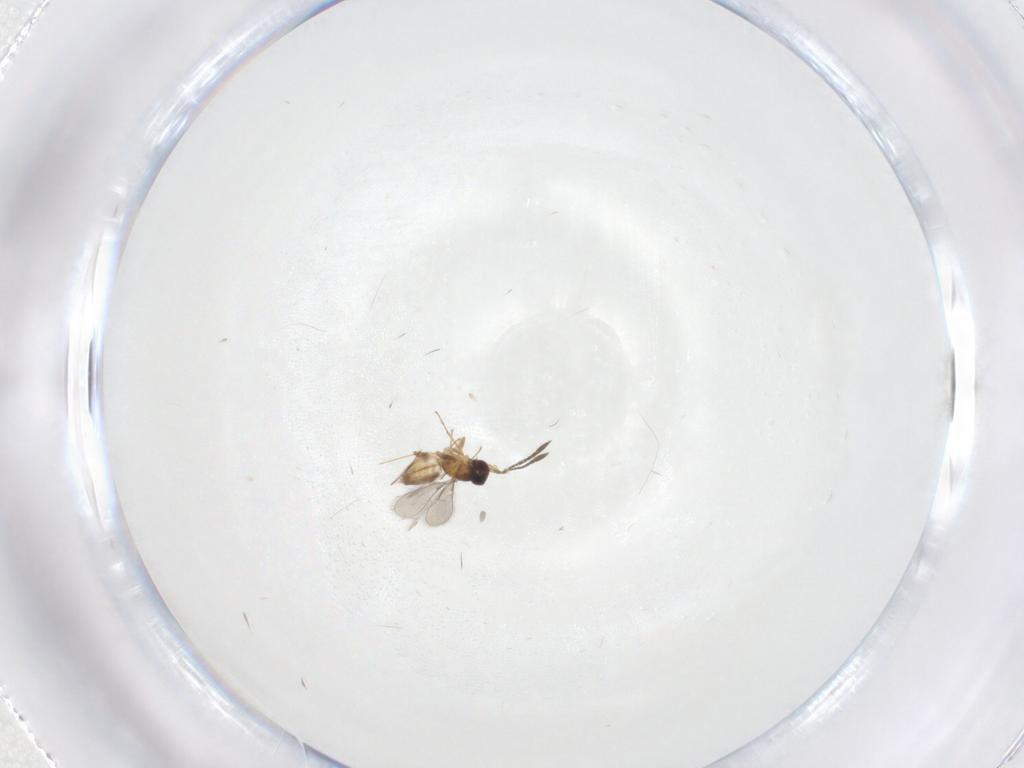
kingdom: Animalia
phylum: Arthropoda
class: Insecta
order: Hymenoptera
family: Mymaridae
